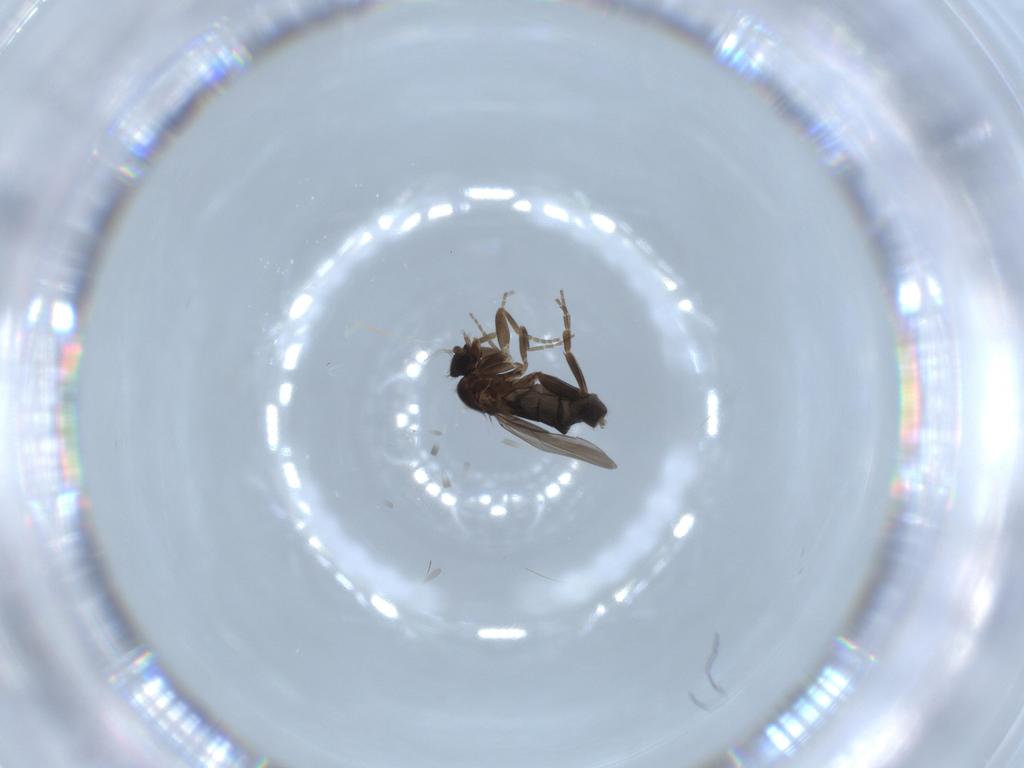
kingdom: Animalia
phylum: Arthropoda
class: Insecta
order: Diptera
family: Phoridae
